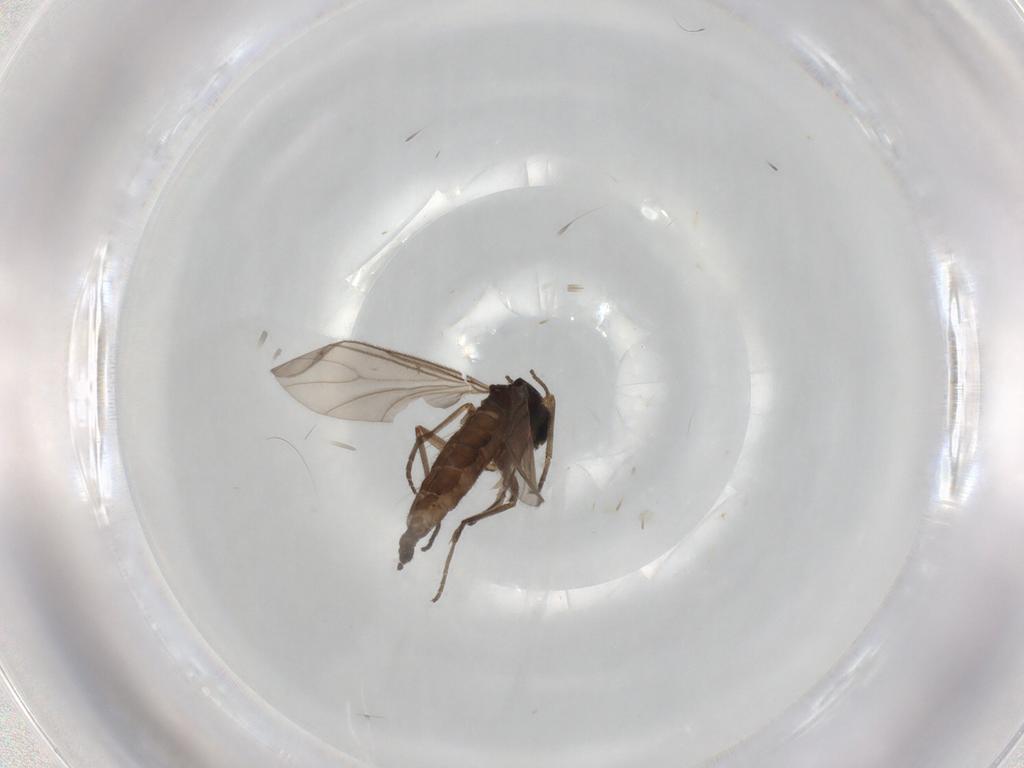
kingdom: Animalia
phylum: Arthropoda
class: Insecta
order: Diptera
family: Sciaridae
